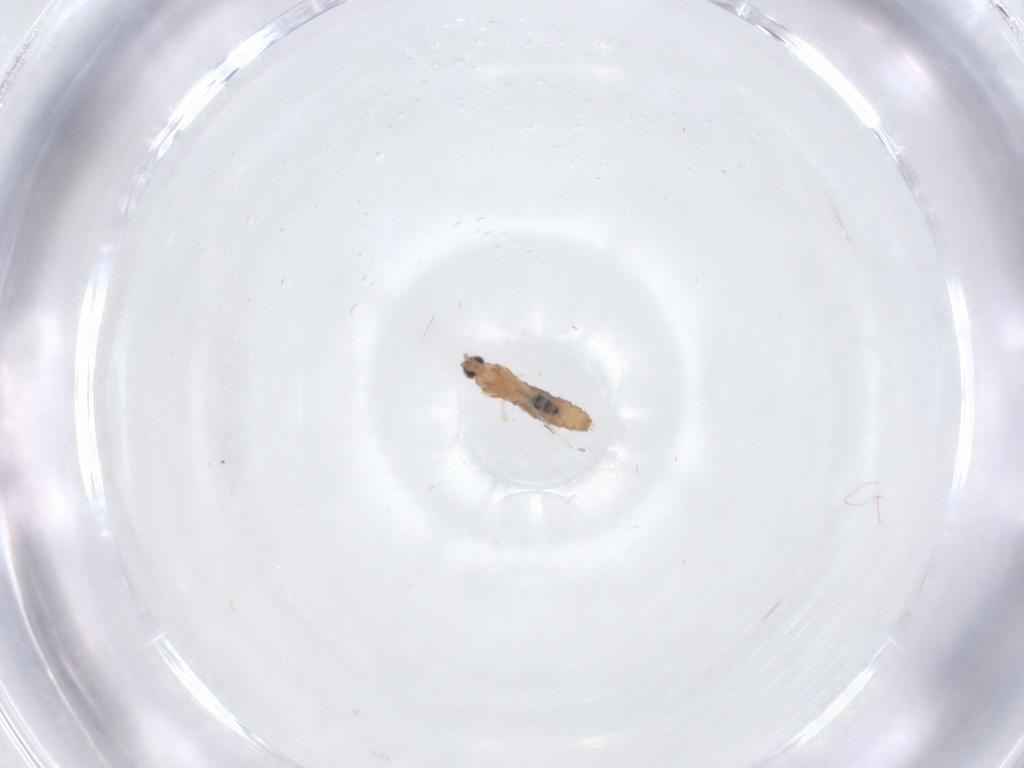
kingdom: Animalia
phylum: Arthropoda
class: Insecta
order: Diptera
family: Cecidomyiidae
